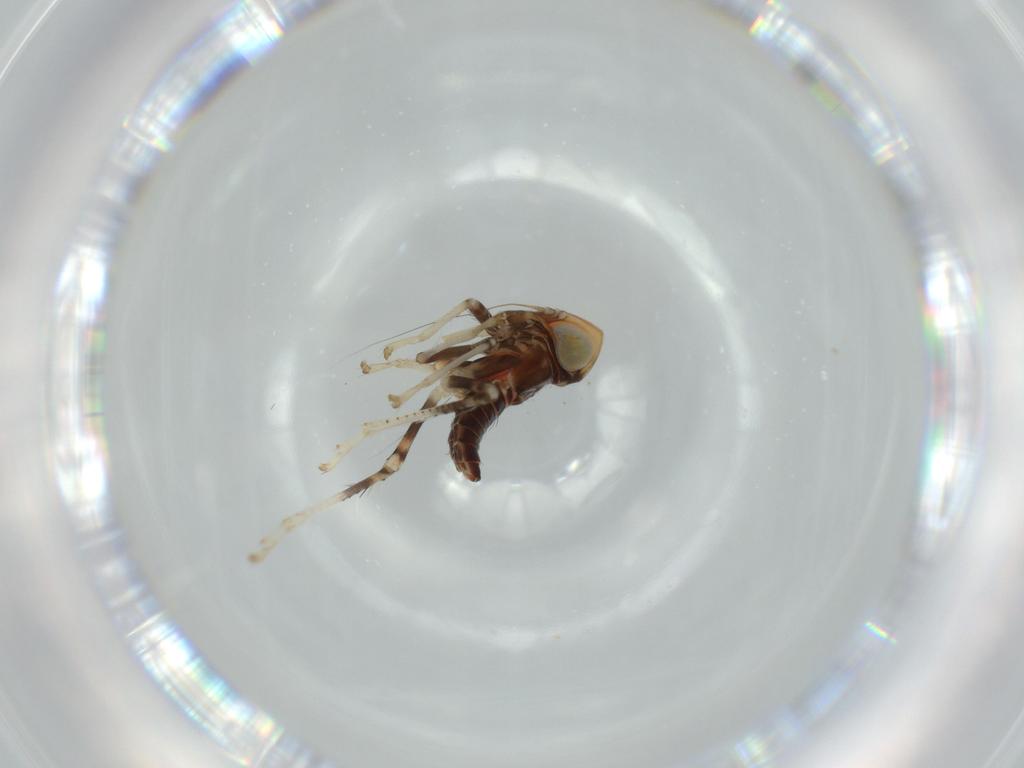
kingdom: Animalia
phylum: Arthropoda
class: Insecta
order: Hemiptera
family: Cicadellidae
